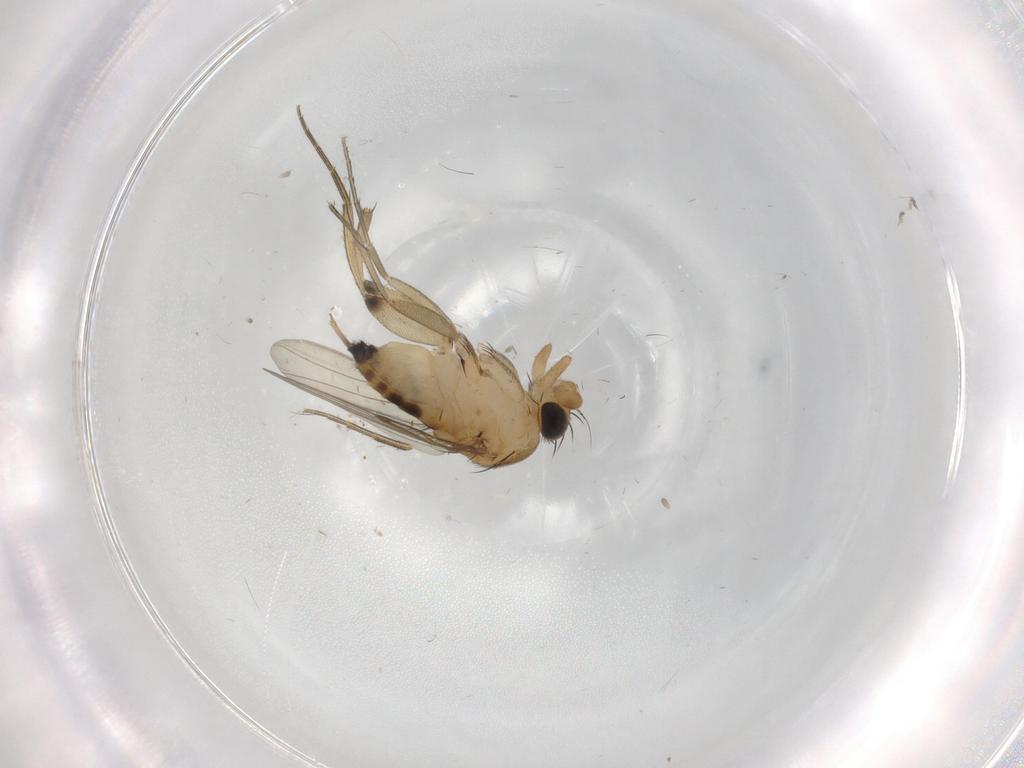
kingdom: Animalia
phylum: Arthropoda
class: Insecta
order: Diptera
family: Phoridae
